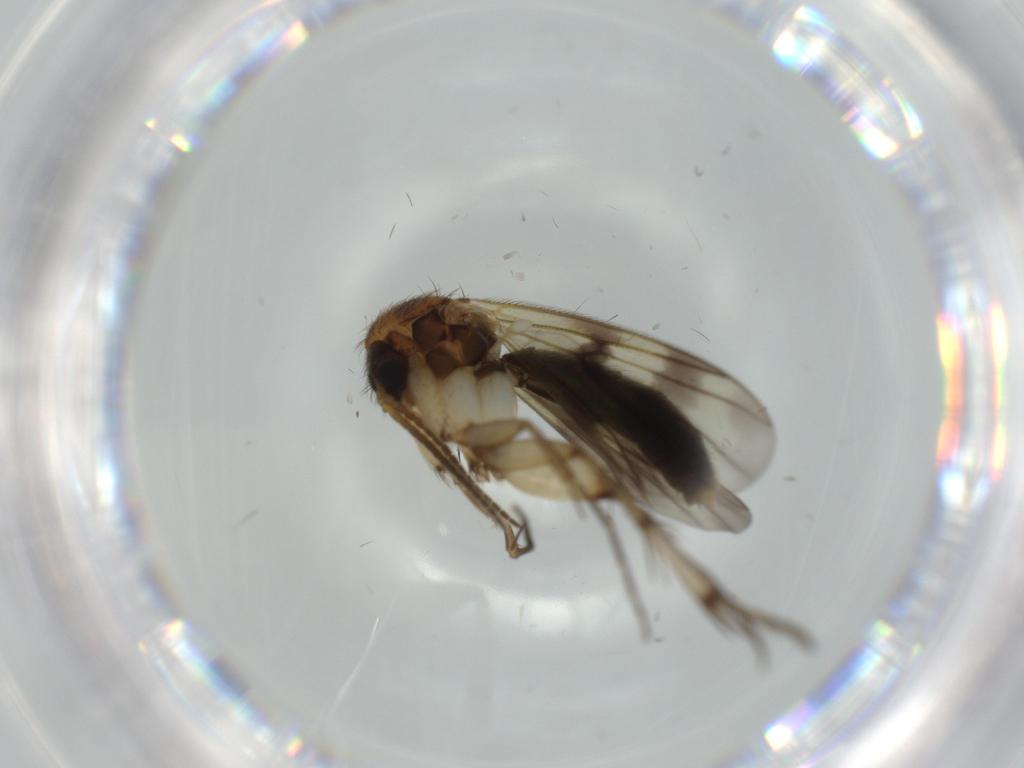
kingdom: Animalia
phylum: Arthropoda
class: Insecta
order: Diptera
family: Cecidomyiidae
